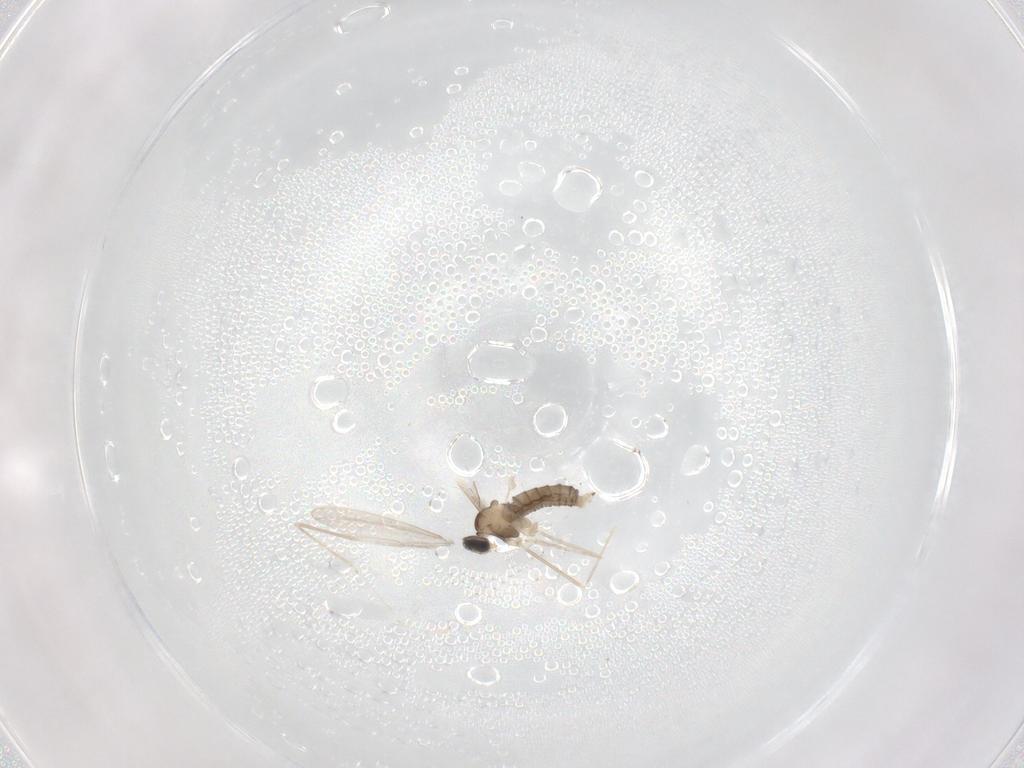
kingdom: Animalia
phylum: Arthropoda
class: Insecta
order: Diptera
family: Cecidomyiidae
